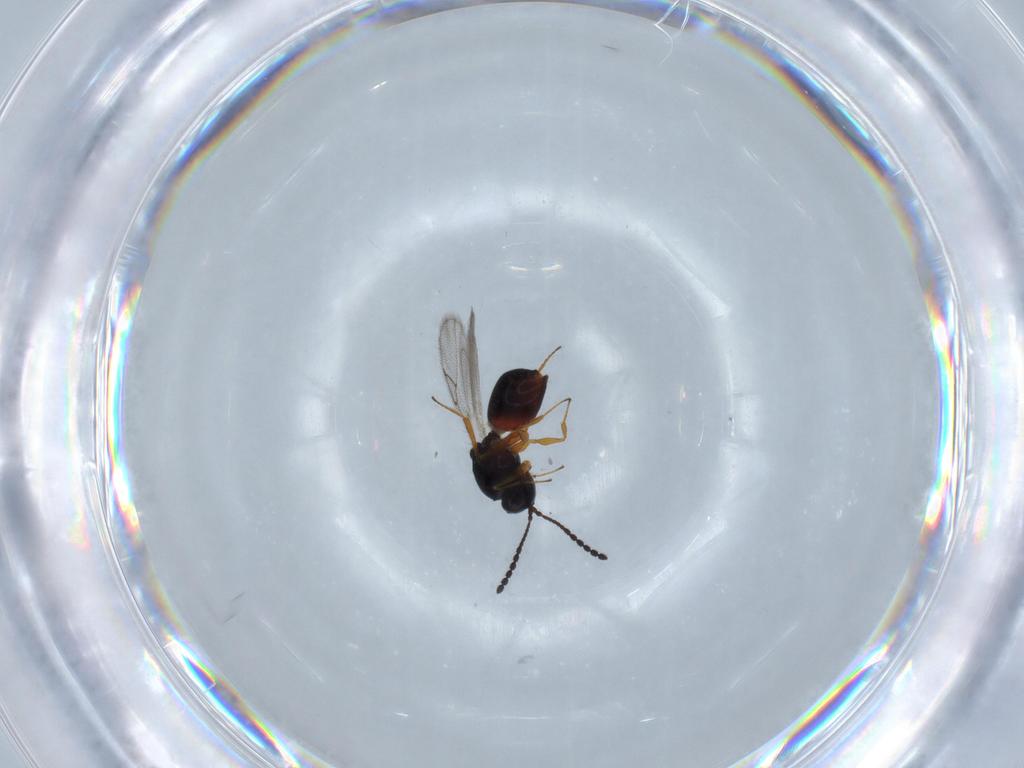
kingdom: Animalia
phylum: Arthropoda
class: Insecta
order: Hymenoptera
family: Figitidae
